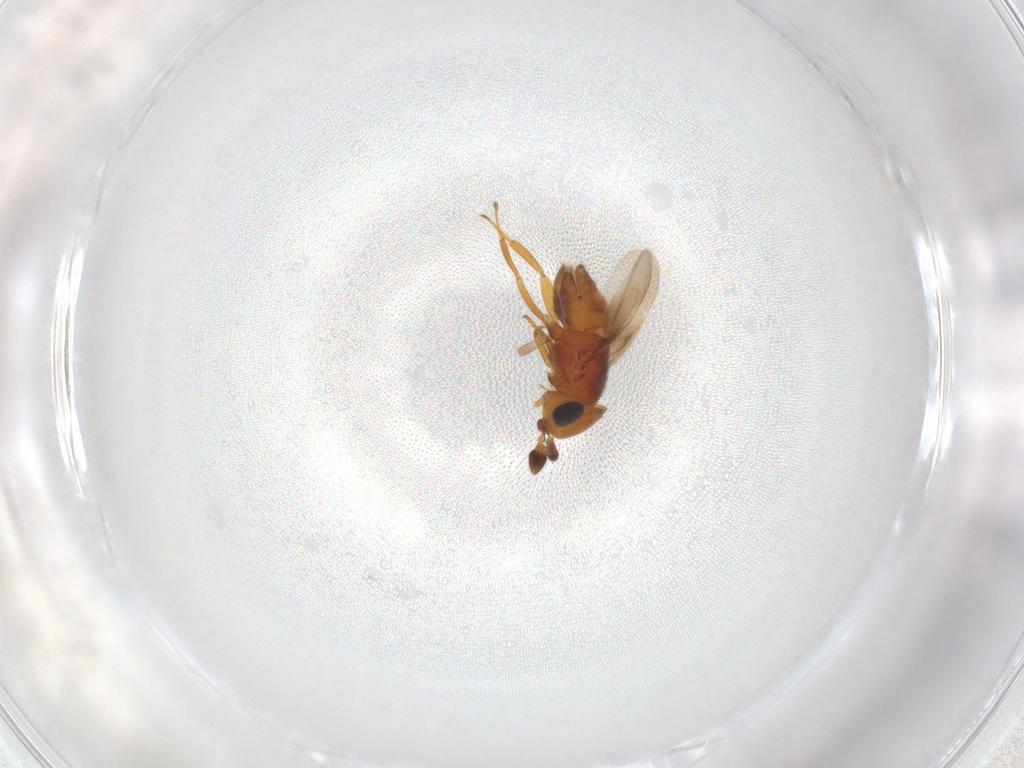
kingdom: Animalia
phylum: Arthropoda
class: Insecta
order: Hymenoptera
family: Encyrtidae
